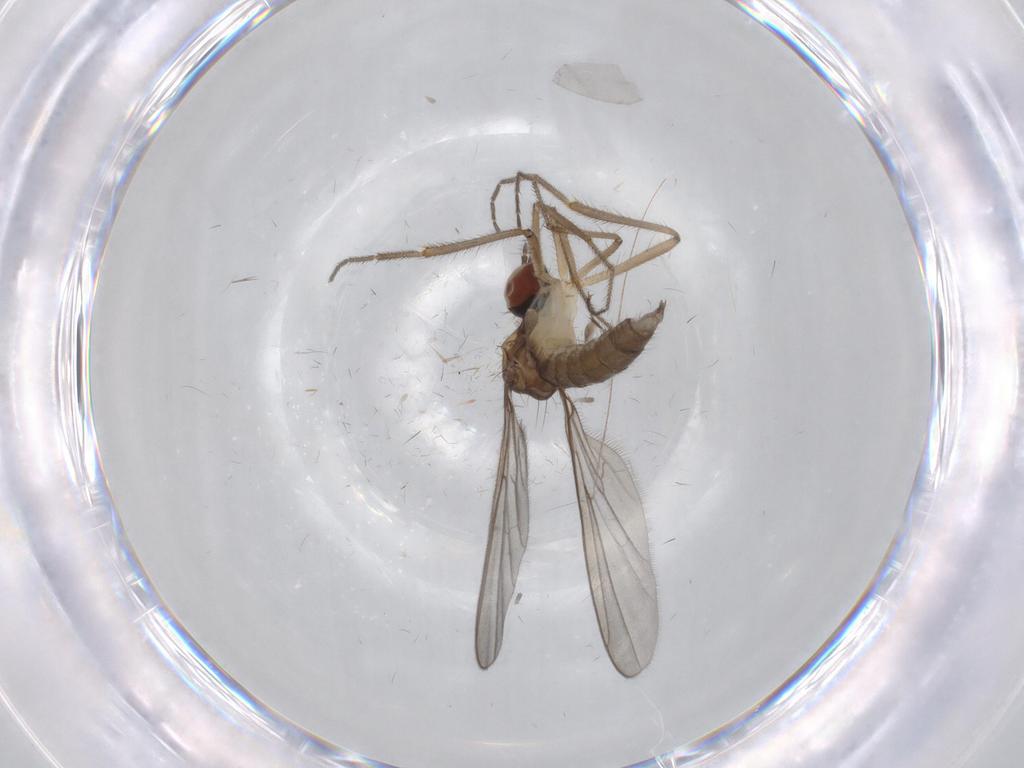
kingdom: Animalia
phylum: Arthropoda
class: Insecta
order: Diptera
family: Hybotidae
